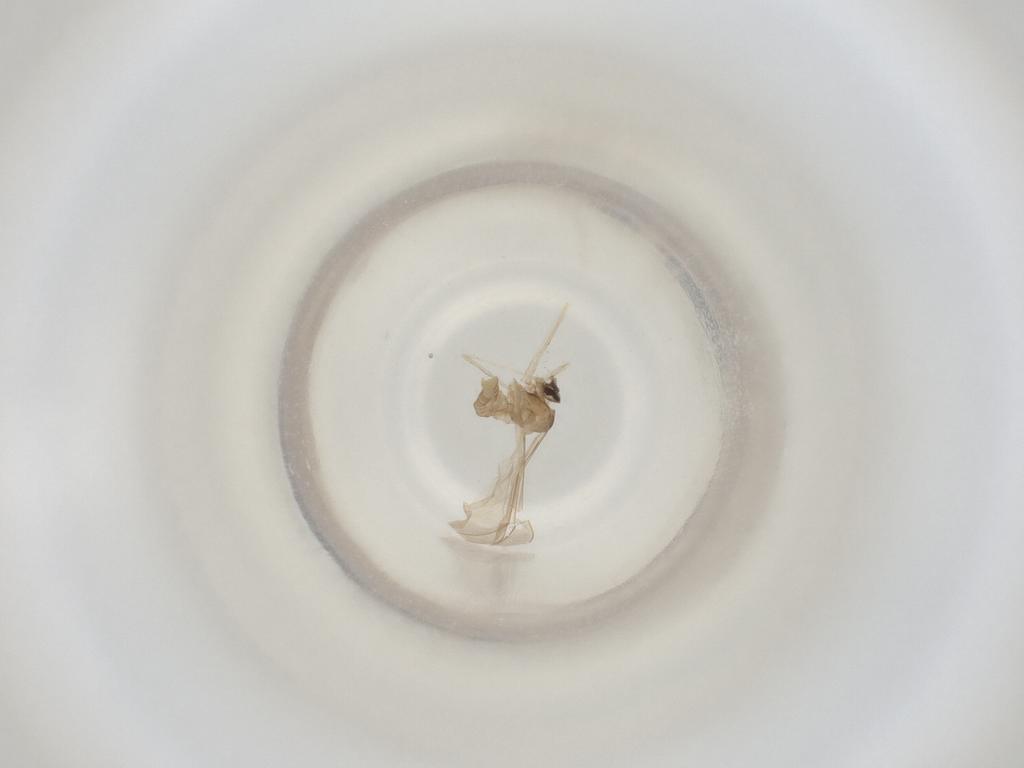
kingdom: Animalia
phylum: Arthropoda
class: Insecta
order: Diptera
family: Cecidomyiidae
